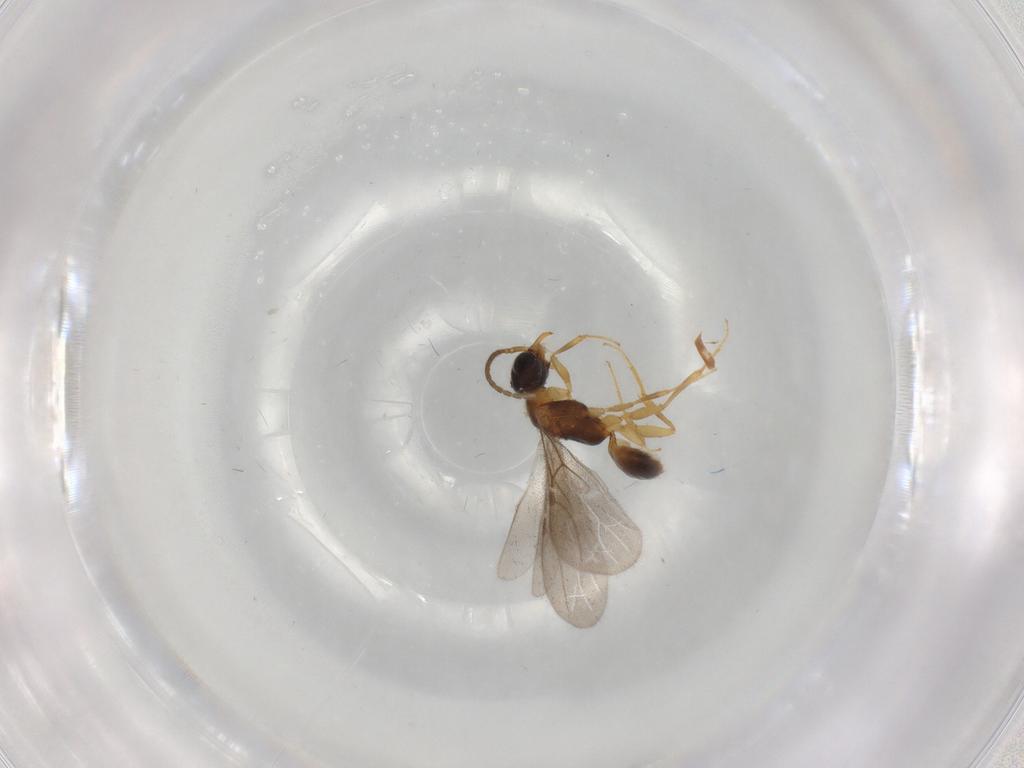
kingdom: Animalia
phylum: Arthropoda
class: Insecta
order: Hymenoptera
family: Bethylidae
